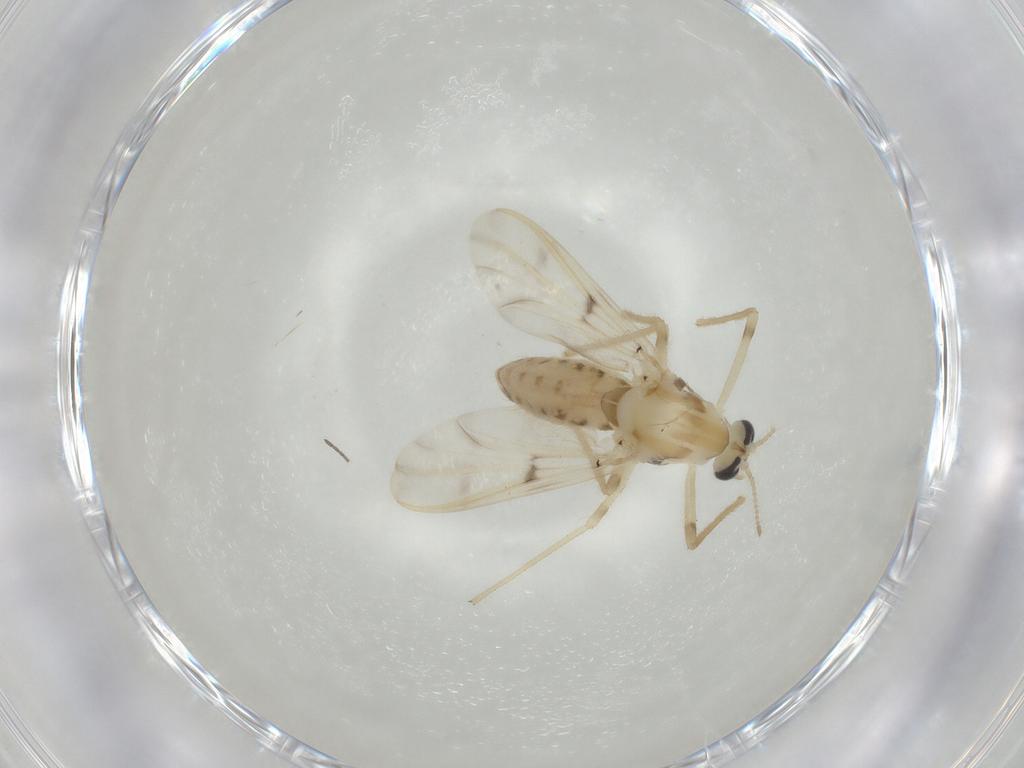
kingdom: Animalia
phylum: Arthropoda
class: Insecta
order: Diptera
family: Chironomidae
